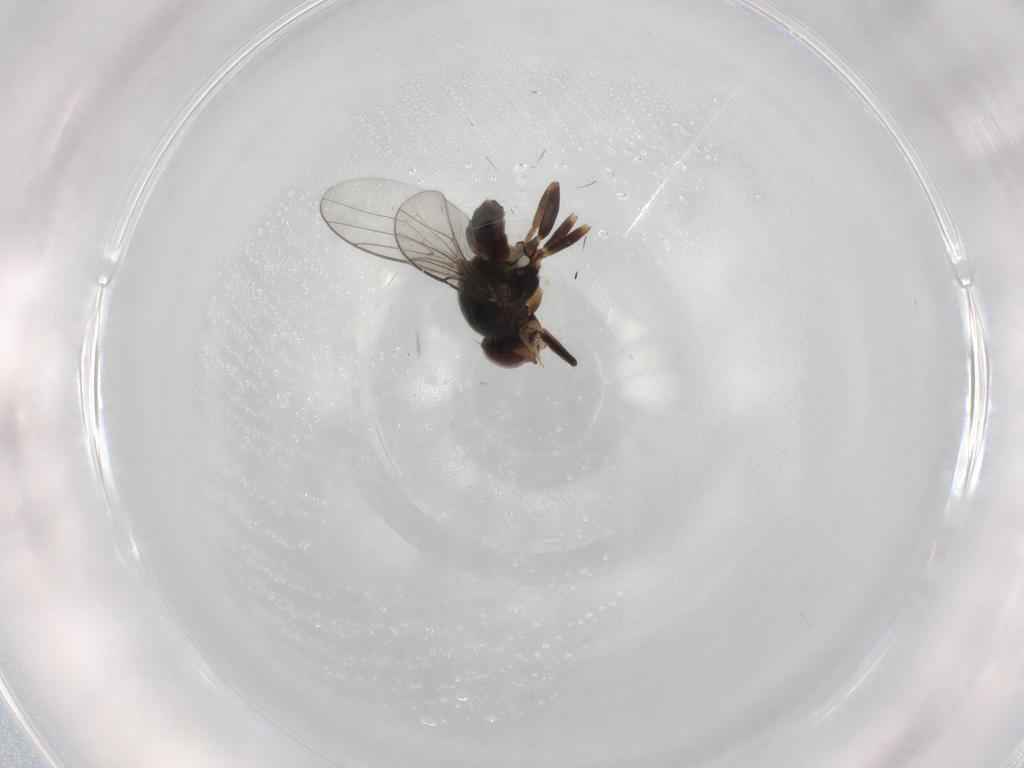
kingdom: Animalia
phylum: Arthropoda
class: Insecta
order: Diptera
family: Chloropidae
